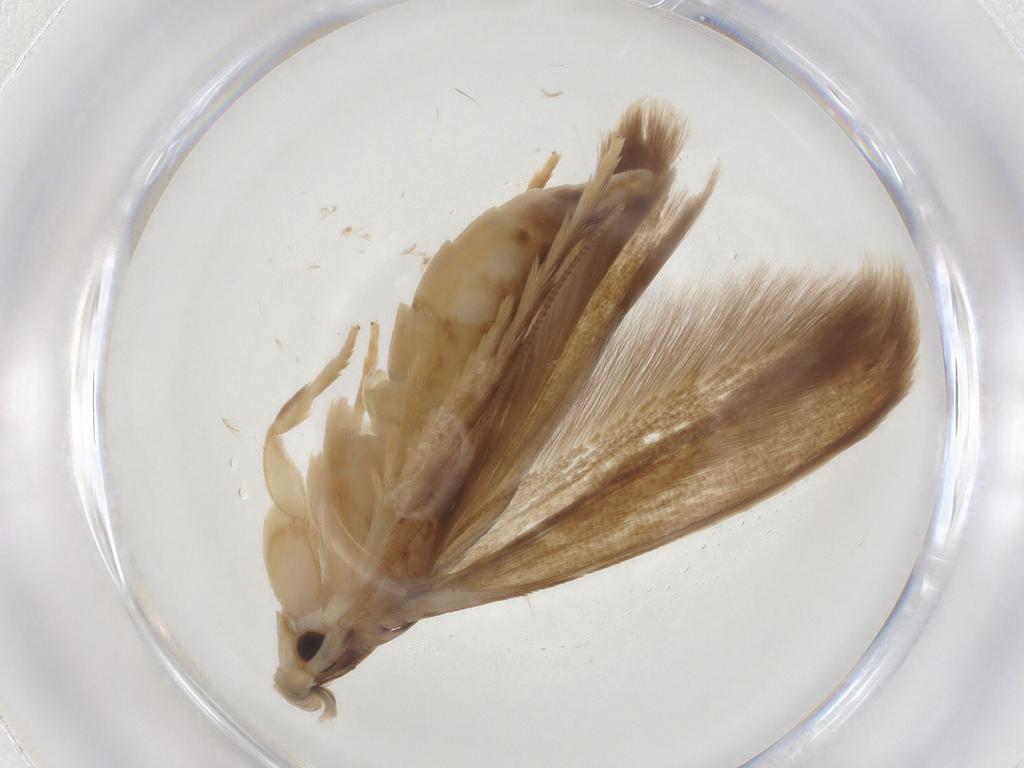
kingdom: Animalia
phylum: Arthropoda
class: Insecta
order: Lepidoptera
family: Tineidae
